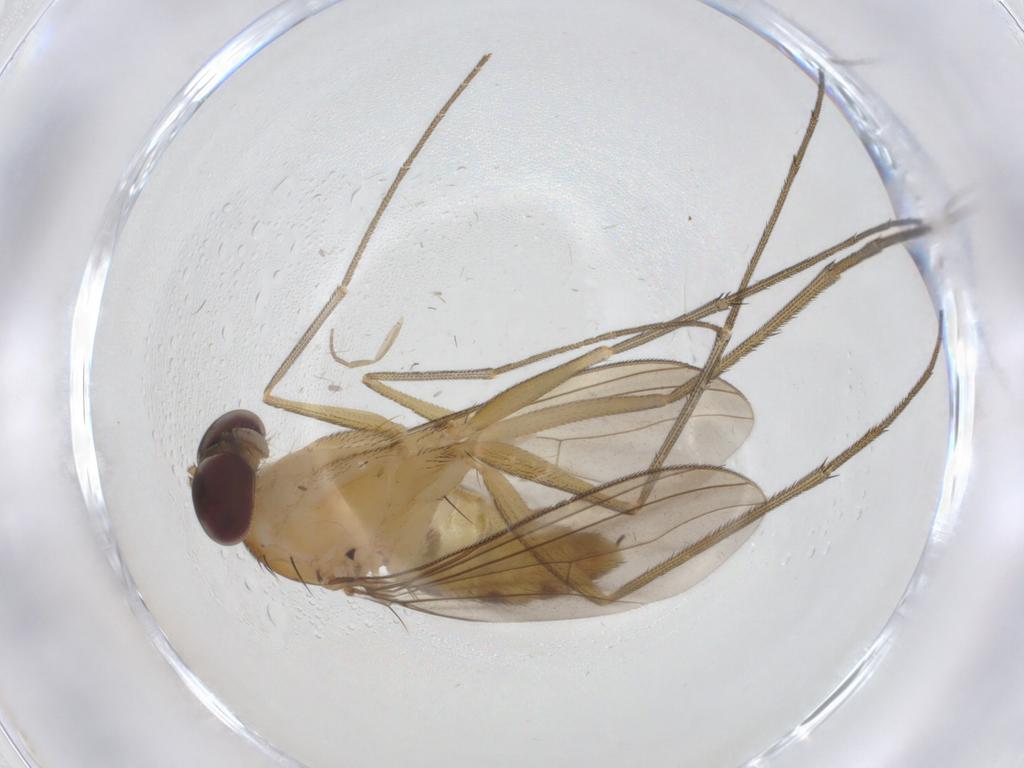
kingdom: Animalia
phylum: Arthropoda
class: Insecta
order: Diptera
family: Dolichopodidae
